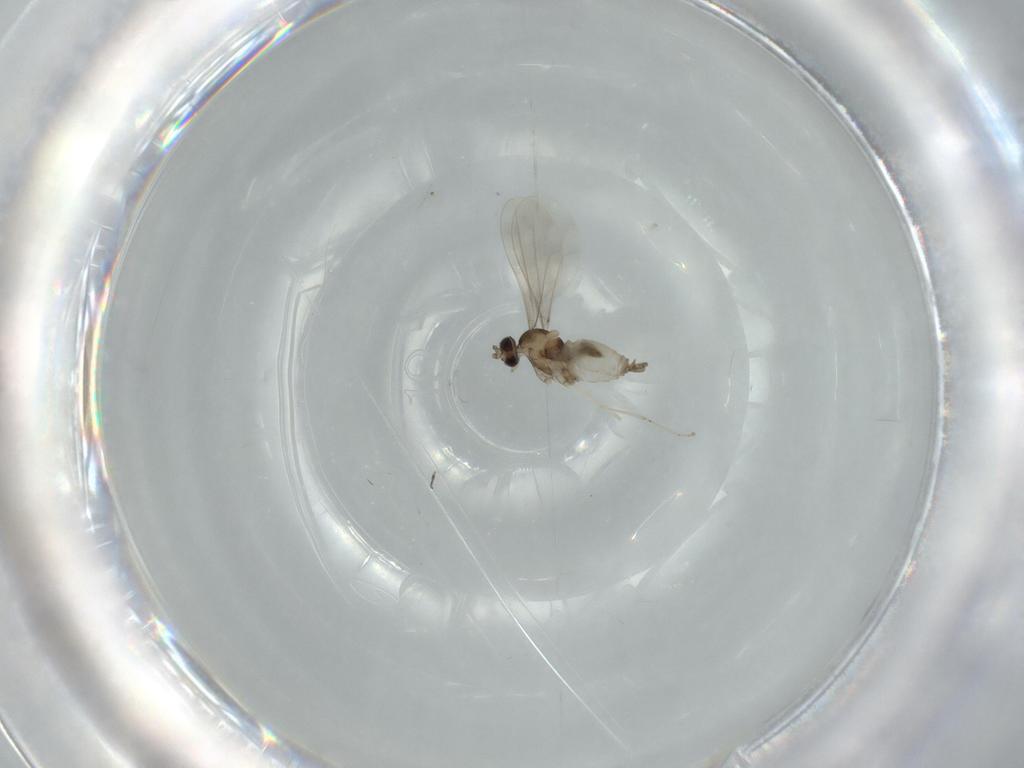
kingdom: Animalia
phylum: Arthropoda
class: Insecta
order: Diptera
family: Cecidomyiidae
